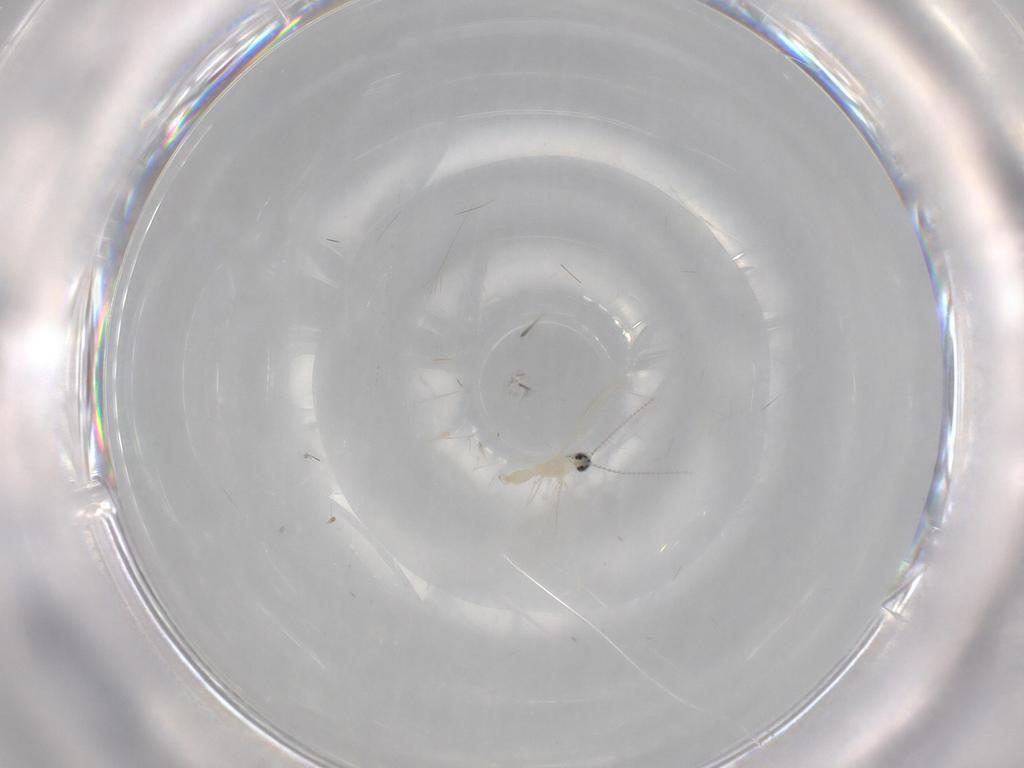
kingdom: Animalia
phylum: Arthropoda
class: Insecta
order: Diptera
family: Cecidomyiidae
